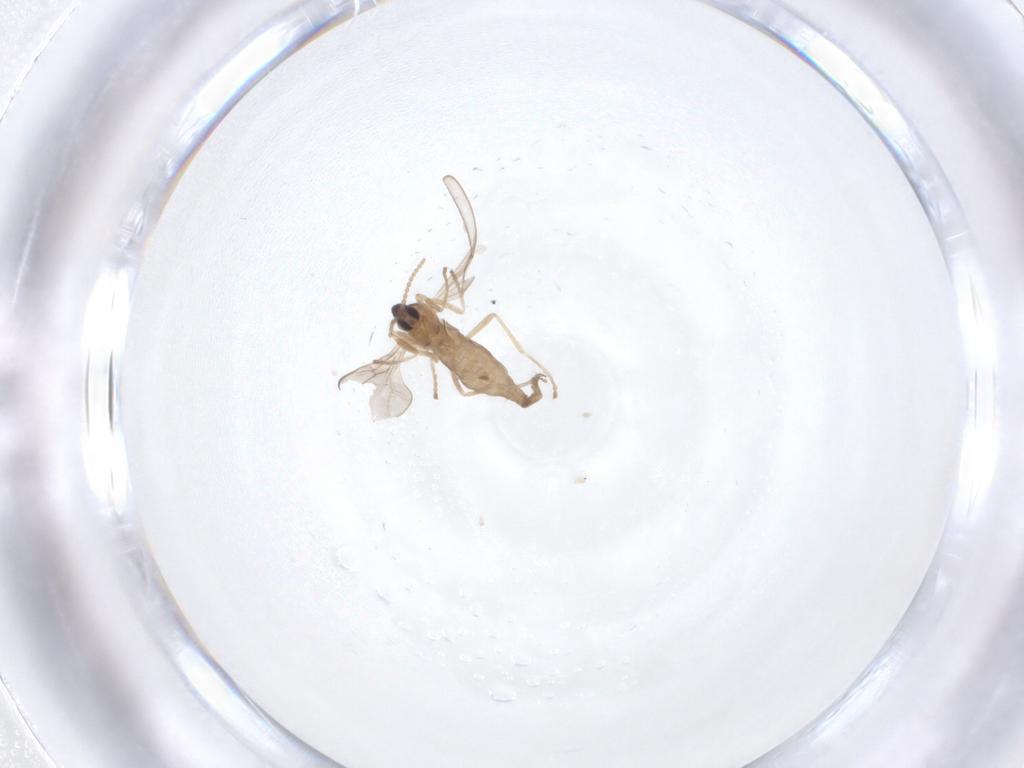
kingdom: Animalia
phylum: Arthropoda
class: Insecta
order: Diptera
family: Cecidomyiidae
